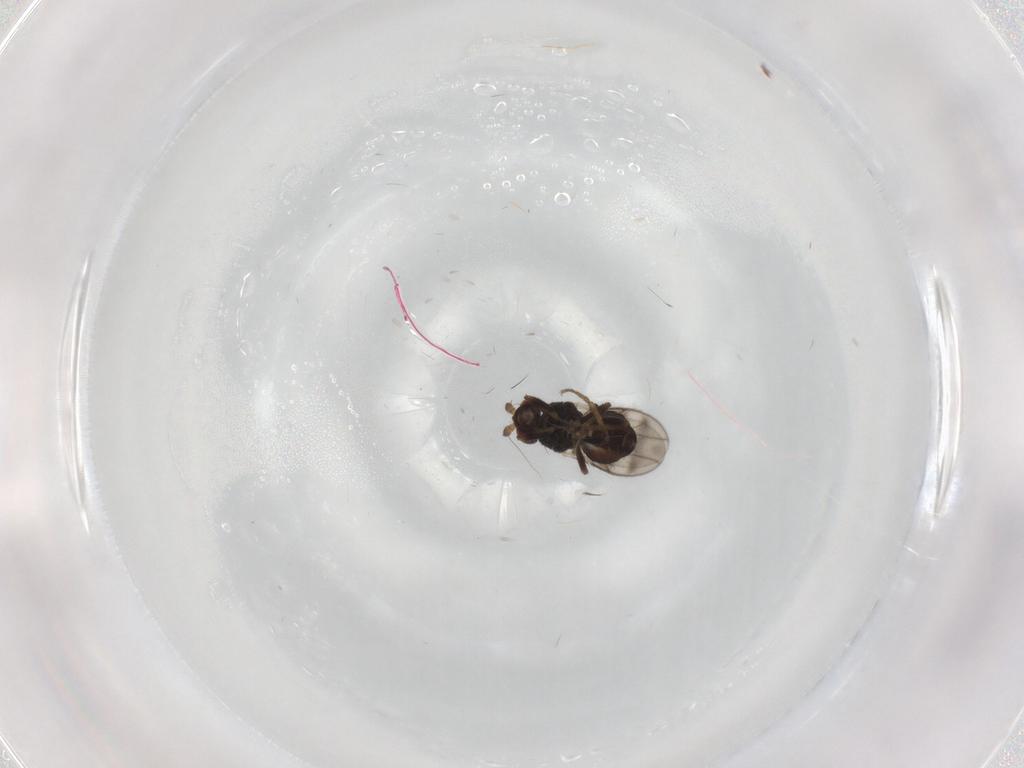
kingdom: Animalia
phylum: Arthropoda
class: Insecta
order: Diptera
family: Sphaeroceridae
